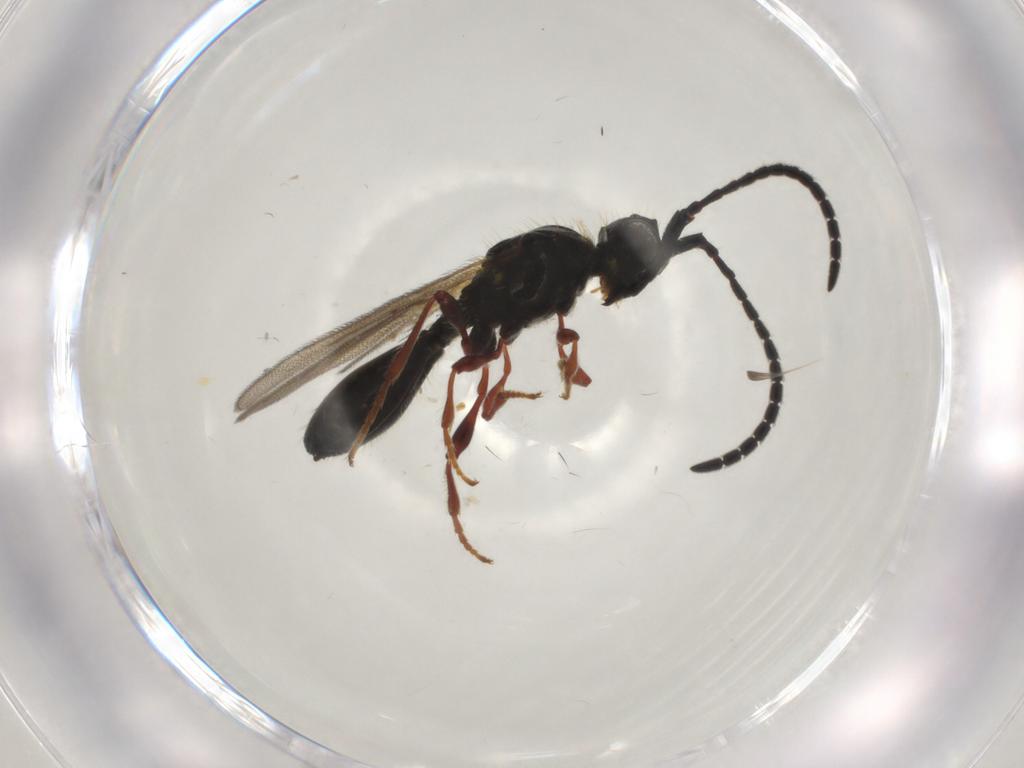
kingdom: Animalia
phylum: Arthropoda
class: Insecta
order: Hymenoptera
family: Diapriidae
